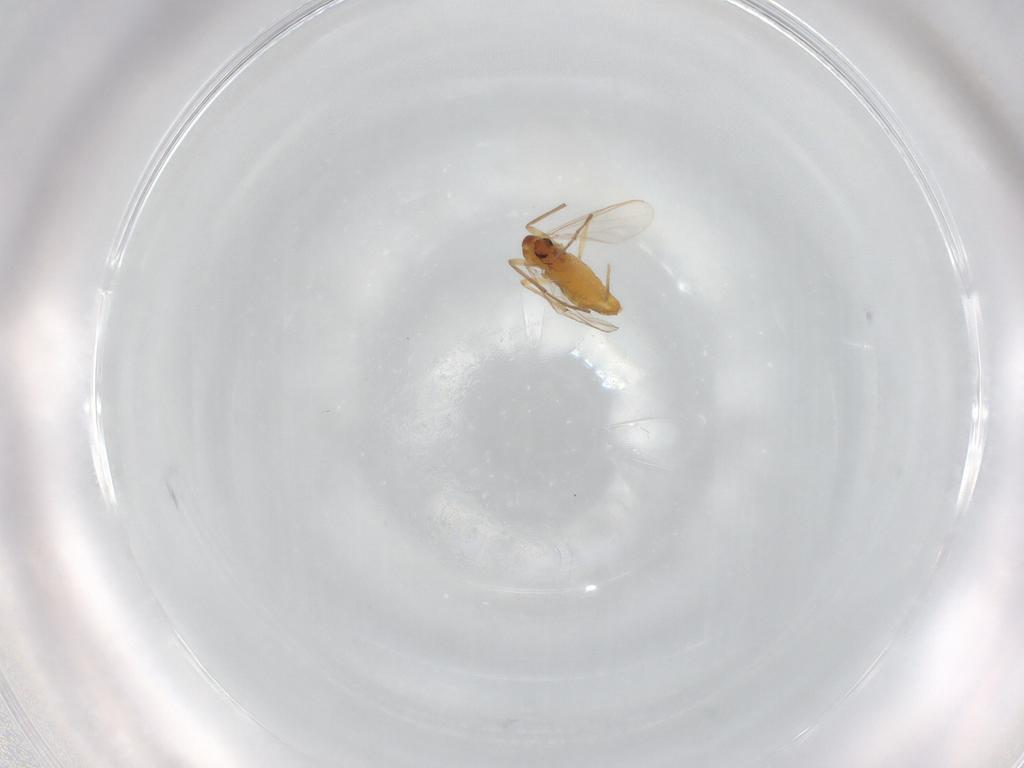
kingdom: Animalia
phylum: Arthropoda
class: Insecta
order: Diptera
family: Chironomidae
